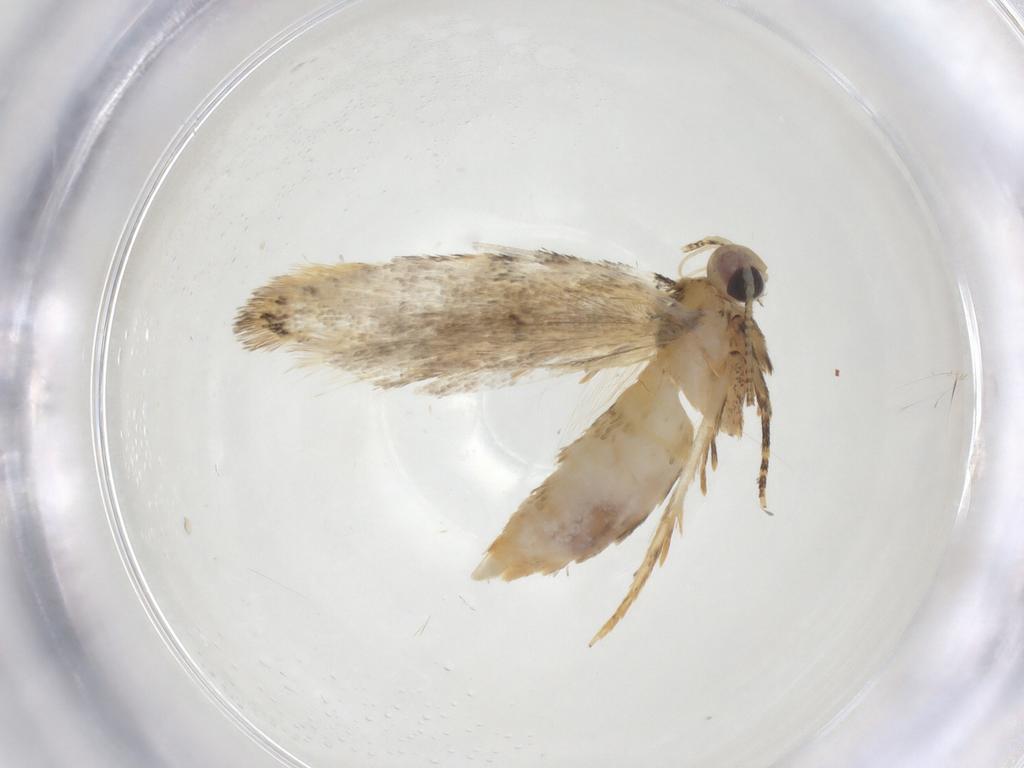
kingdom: Animalia
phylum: Arthropoda
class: Insecta
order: Lepidoptera
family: Noctuidae
